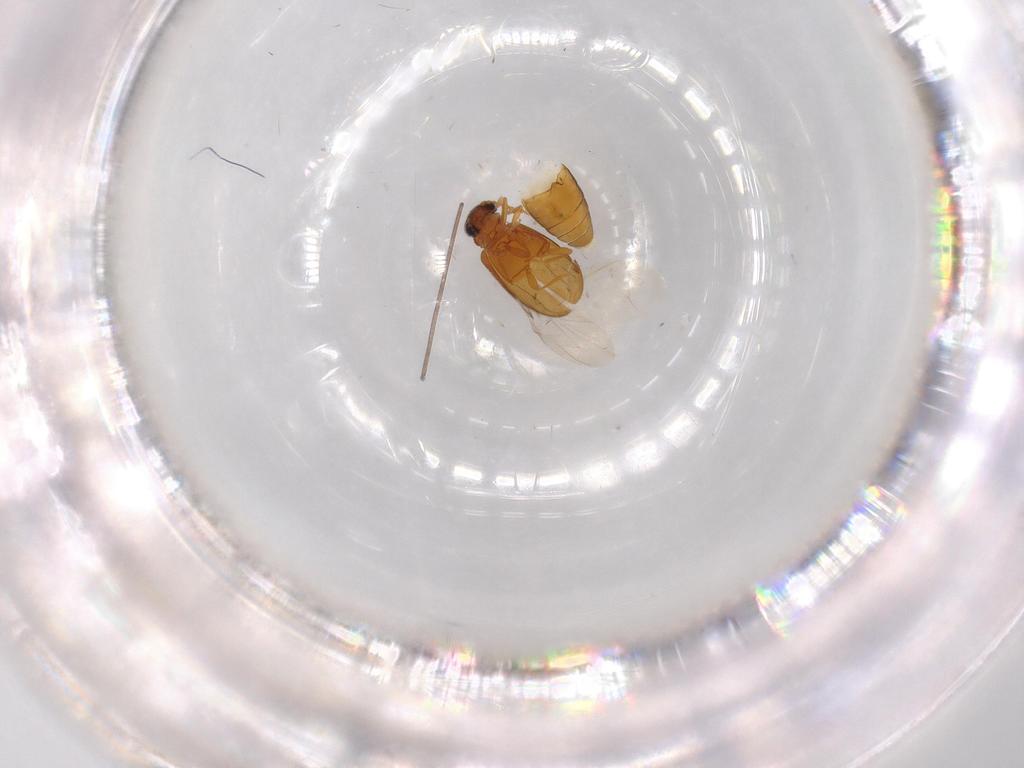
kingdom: Animalia
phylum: Arthropoda
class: Insecta
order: Coleoptera
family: Aderidae
